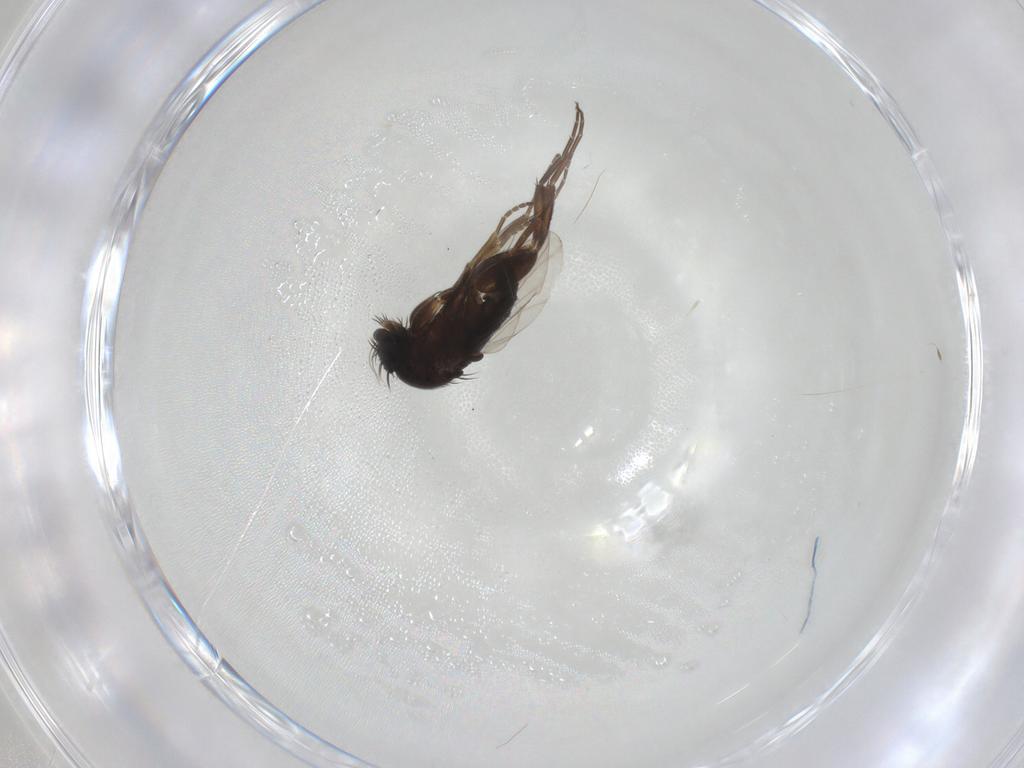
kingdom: Animalia
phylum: Arthropoda
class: Insecta
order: Diptera
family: Phoridae
